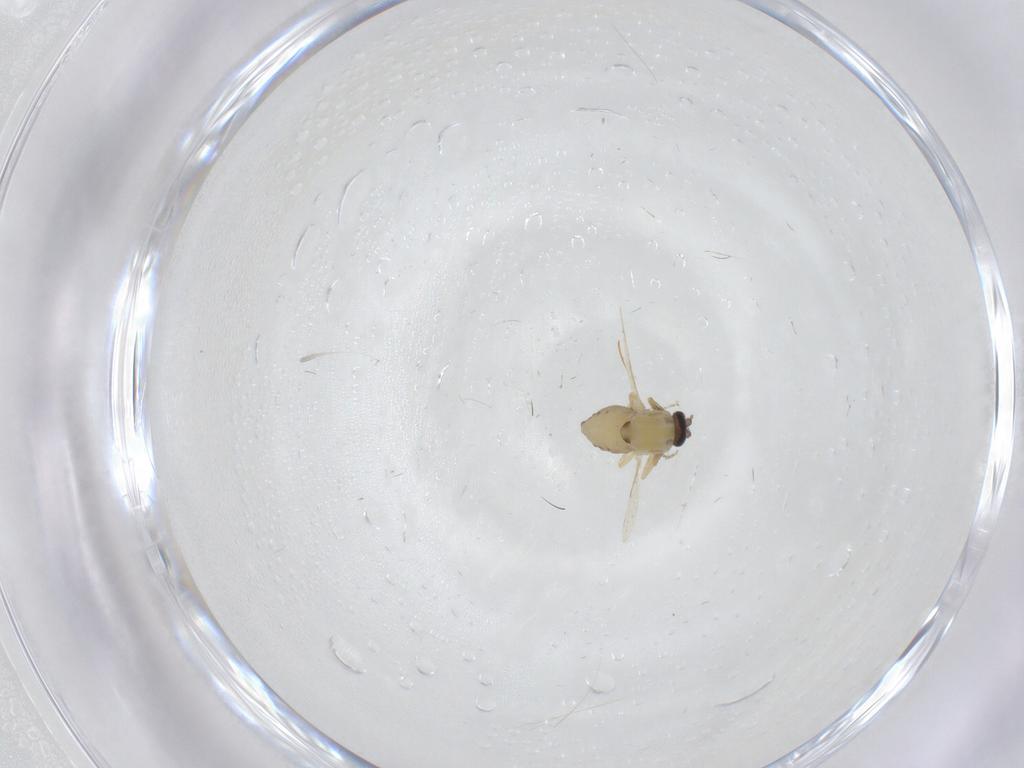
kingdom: Animalia
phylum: Arthropoda
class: Insecta
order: Diptera
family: Ceratopogonidae
